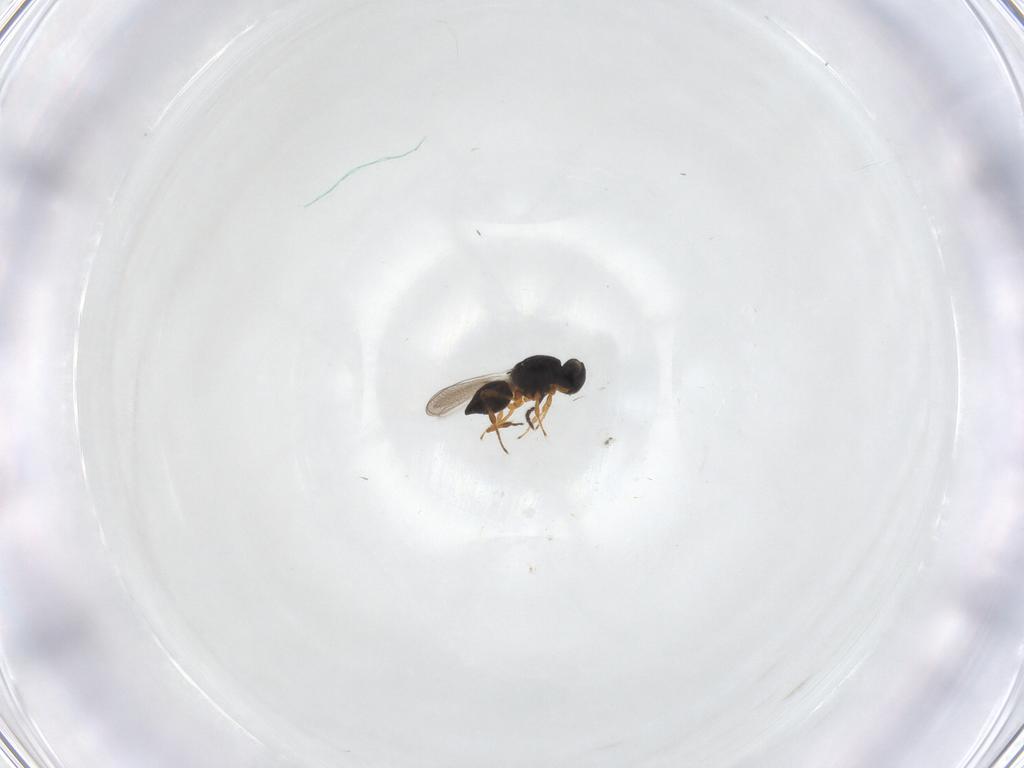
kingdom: Animalia
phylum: Arthropoda
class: Insecta
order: Hymenoptera
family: Platygastridae
